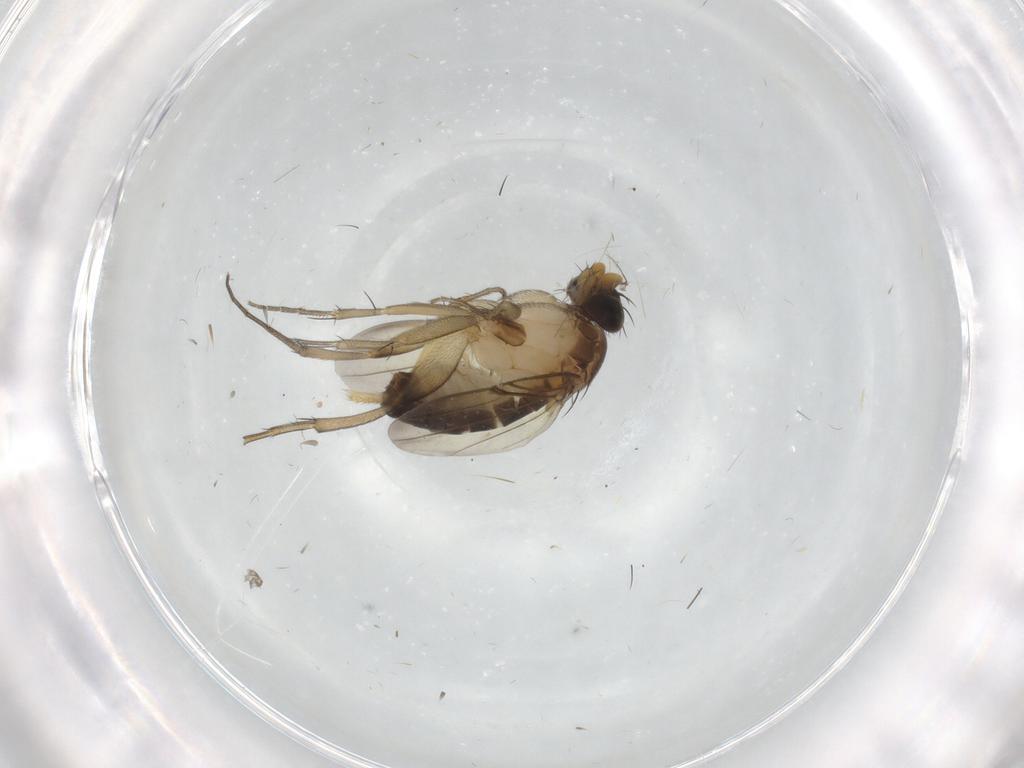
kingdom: Animalia
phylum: Arthropoda
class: Insecta
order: Diptera
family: Phoridae
